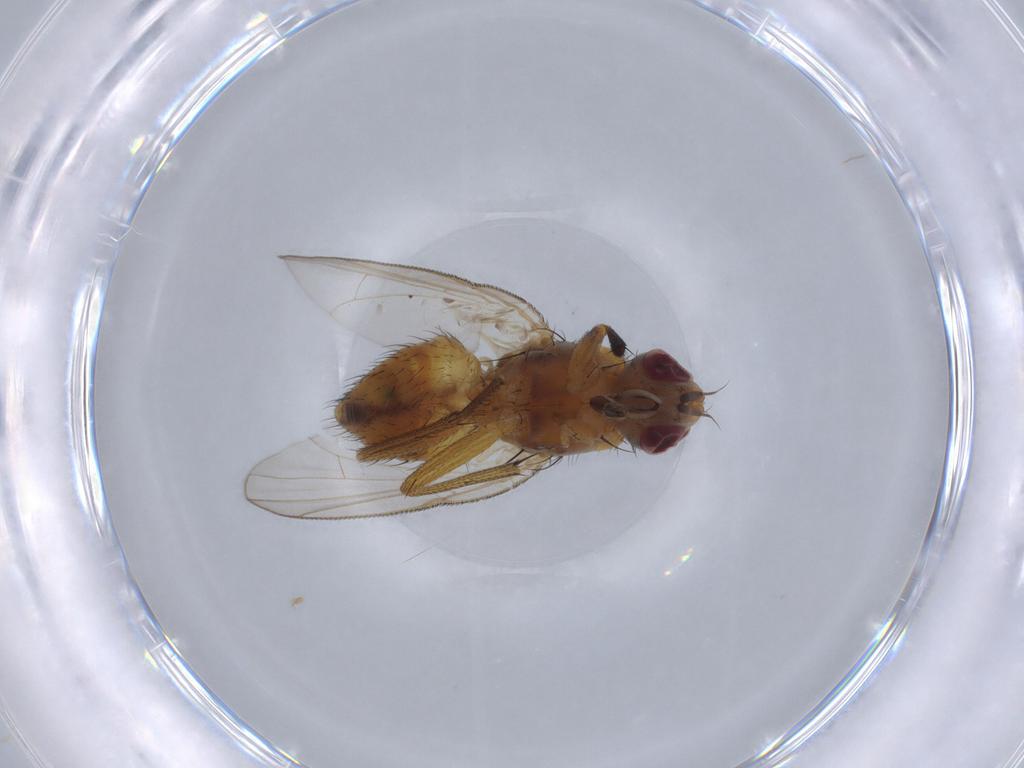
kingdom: Animalia
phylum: Arthropoda
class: Insecta
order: Diptera
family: Chloropidae
